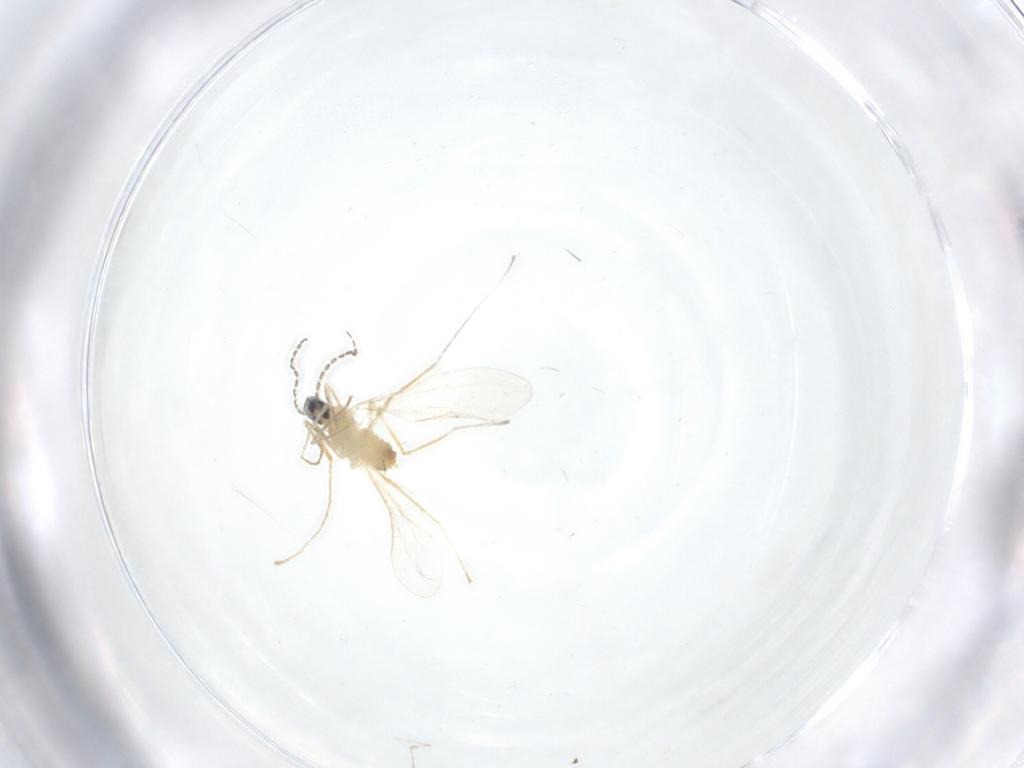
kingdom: Animalia
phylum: Arthropoda
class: Insecta
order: Diptera
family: Cecidomyiidae
